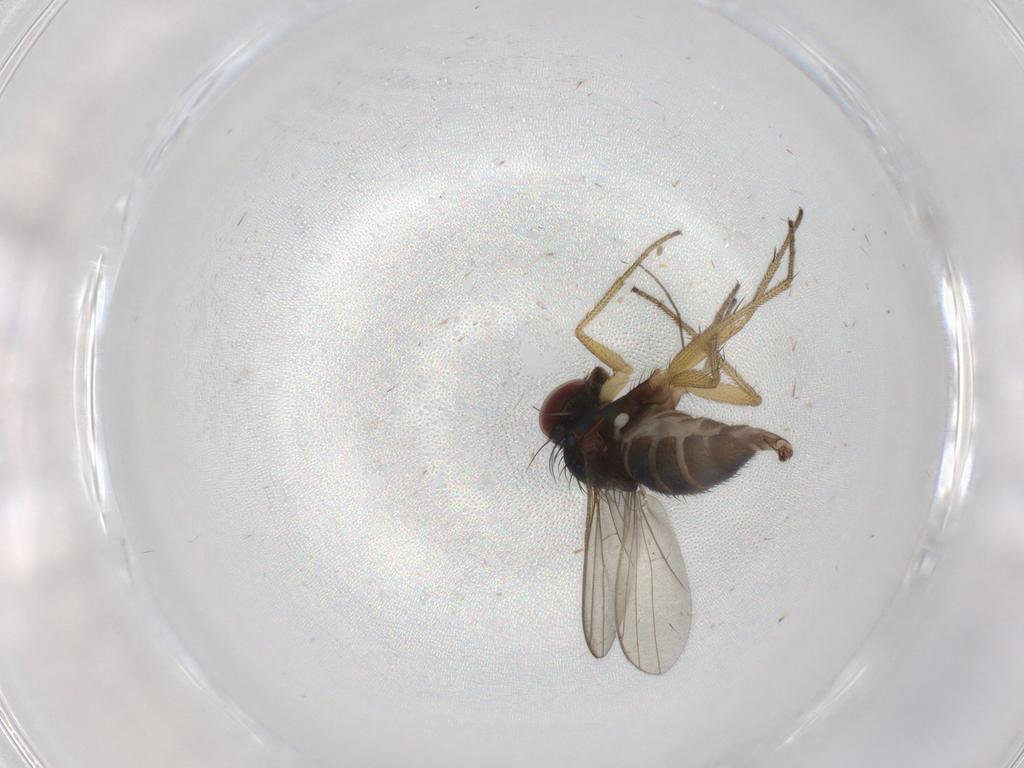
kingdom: Animalia
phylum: Arthropoda
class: Insecta
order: Diptera
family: Dolichopodidae
